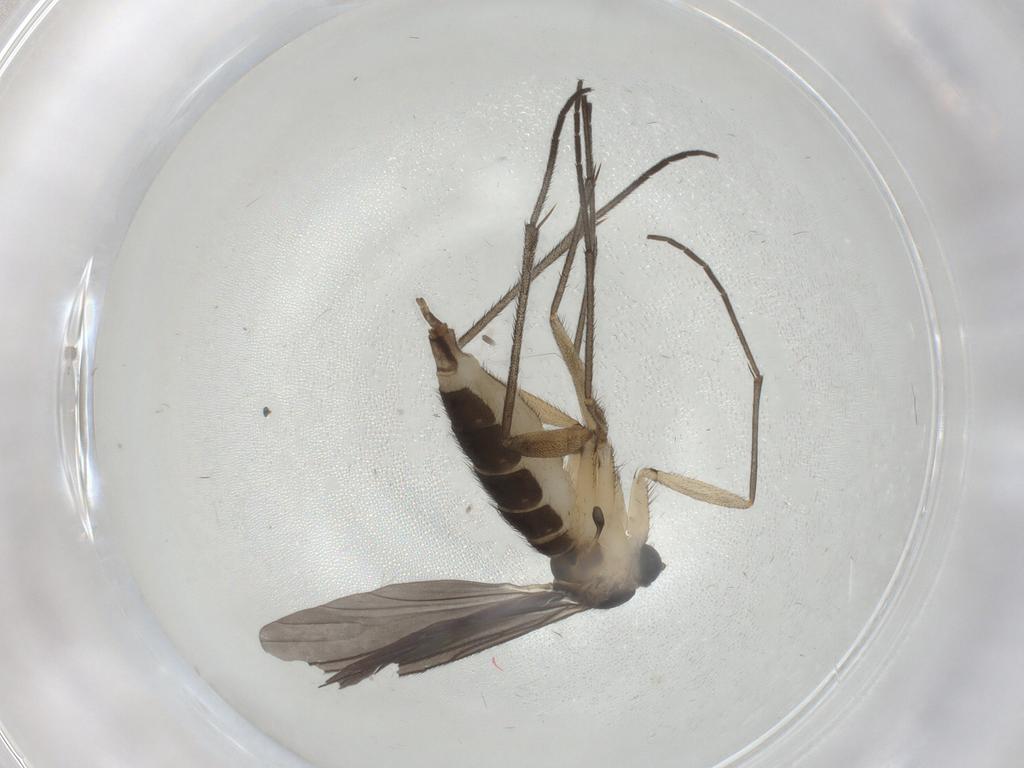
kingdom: Animalia
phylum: Arthropoda
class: Insecta
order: Diptera
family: Sciaridae
